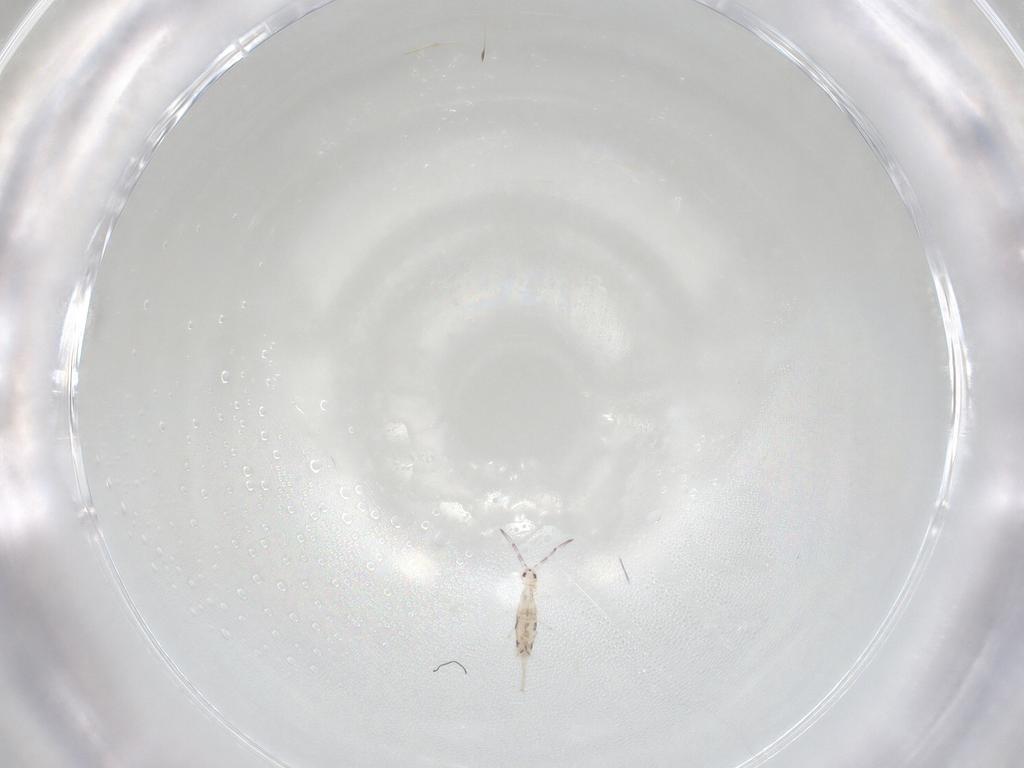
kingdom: Animalia
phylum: Arthropoda
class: Collembola
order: Entomobryomorpha
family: Entomobryidae
